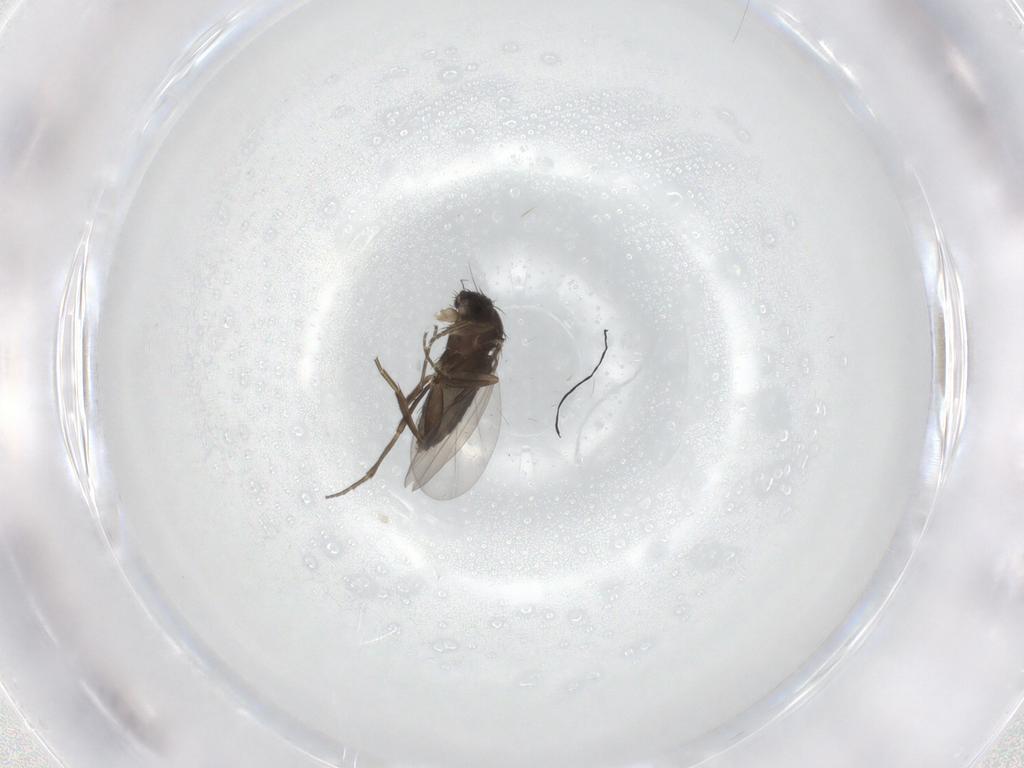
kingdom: Animalia
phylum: Arthropoda
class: Insecta
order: Diptera
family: Phoridae
